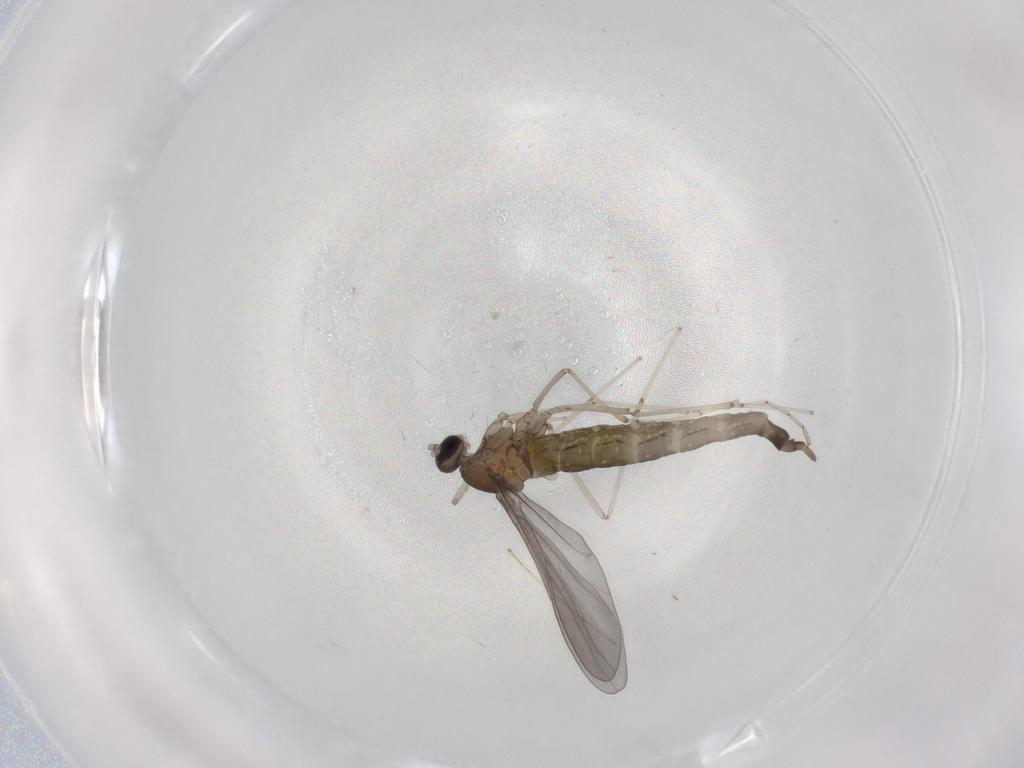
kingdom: Animalia
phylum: Arthropoda
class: Insecta
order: Diptera
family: Cecidomyiidae
